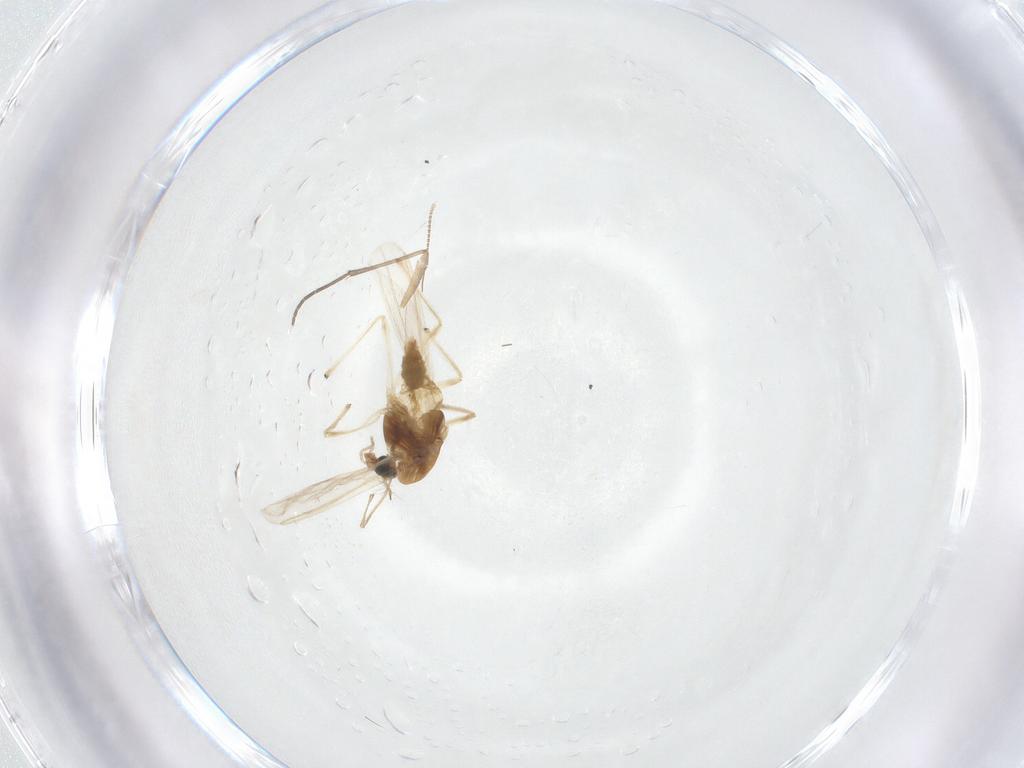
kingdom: Animalia
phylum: Arthropoda
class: Insecta
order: Diptera
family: Chironomidae
